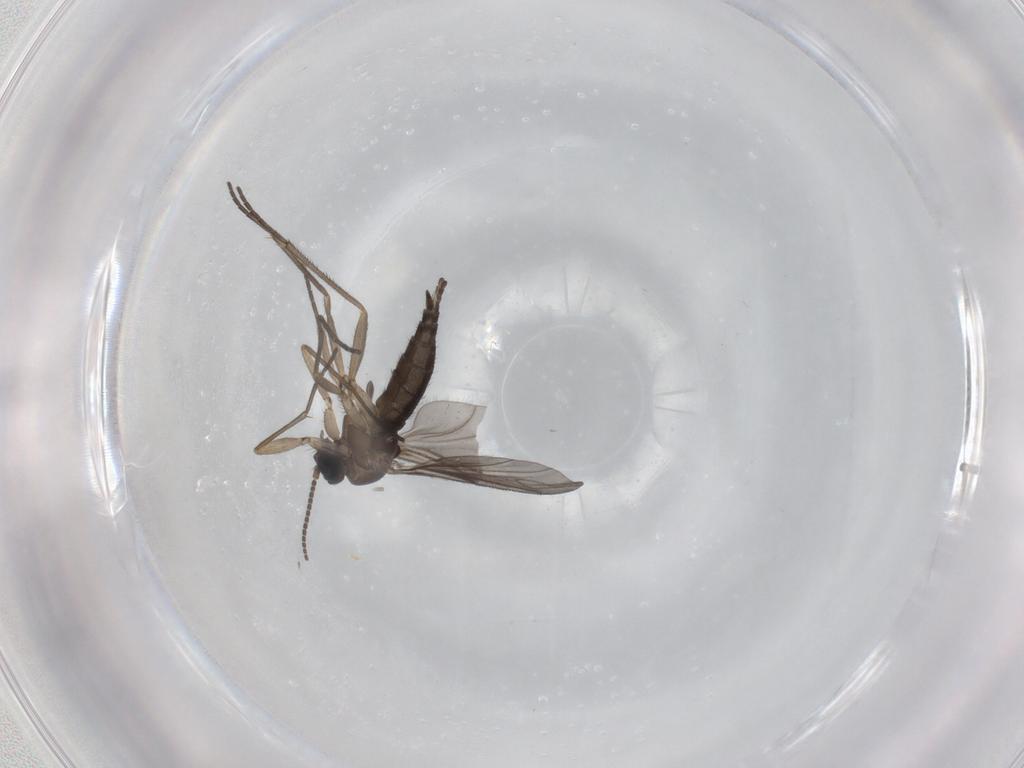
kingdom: Animalia
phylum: Arthropoda
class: Insecta
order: Diptera
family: Sciaridae
